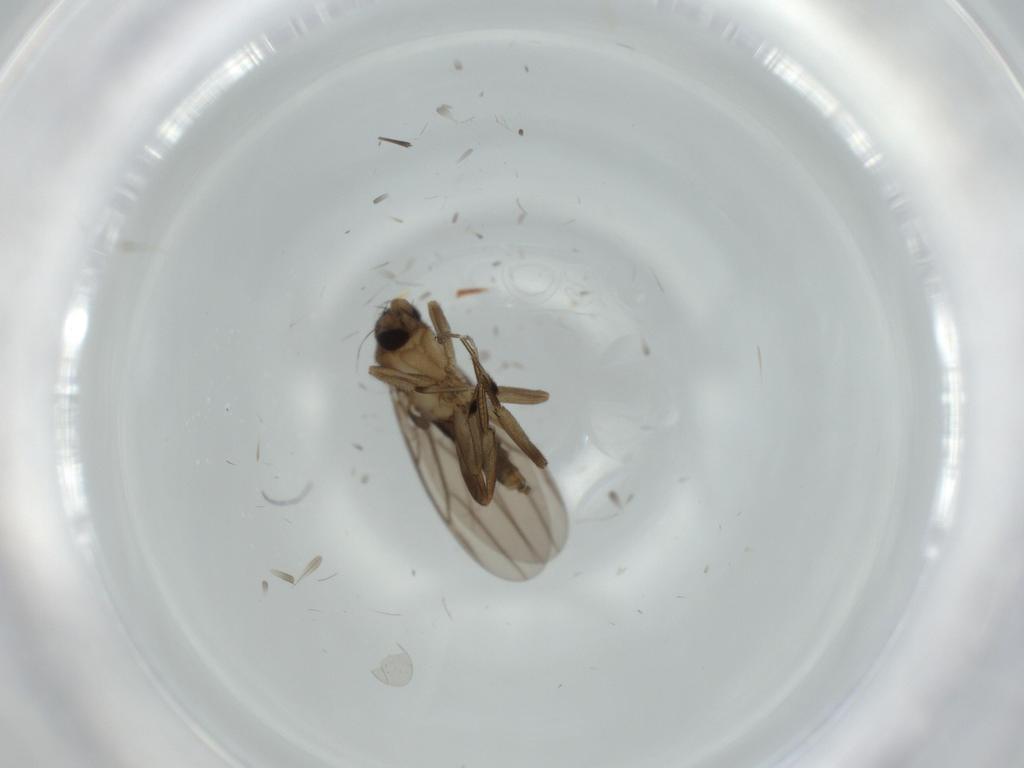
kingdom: Animalia
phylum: Arthropoda
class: Insecta
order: Diptera
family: Phoridae
